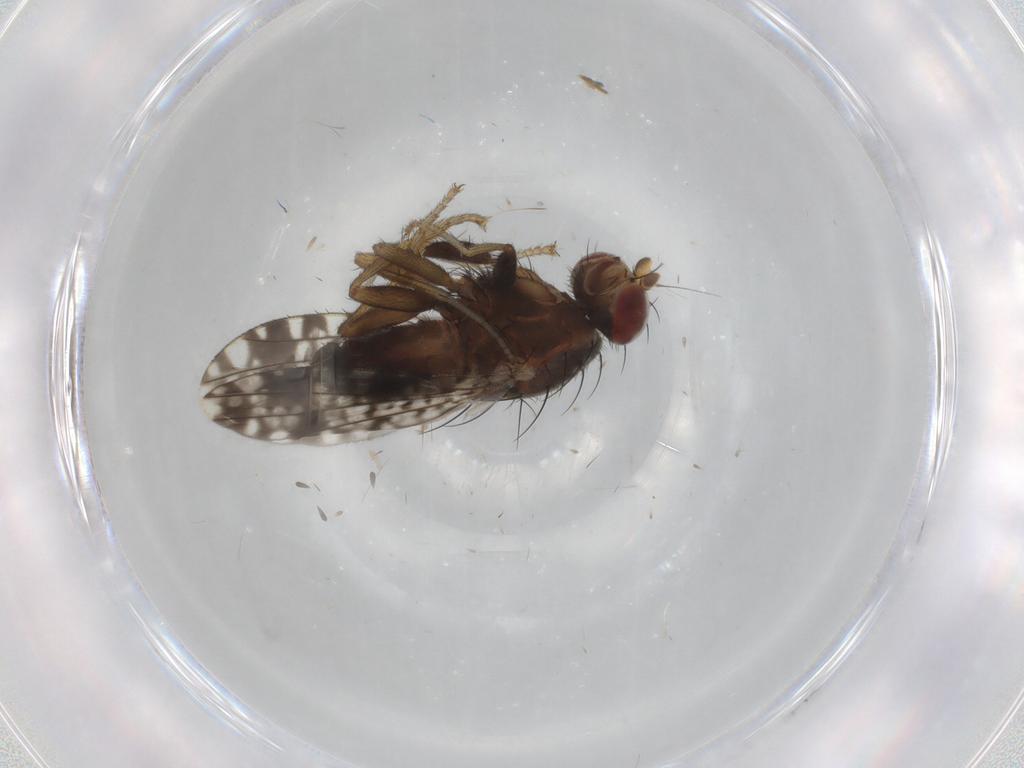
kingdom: Animalia
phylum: Arthropoda
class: Insecta
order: Diptera
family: Tephritidae
